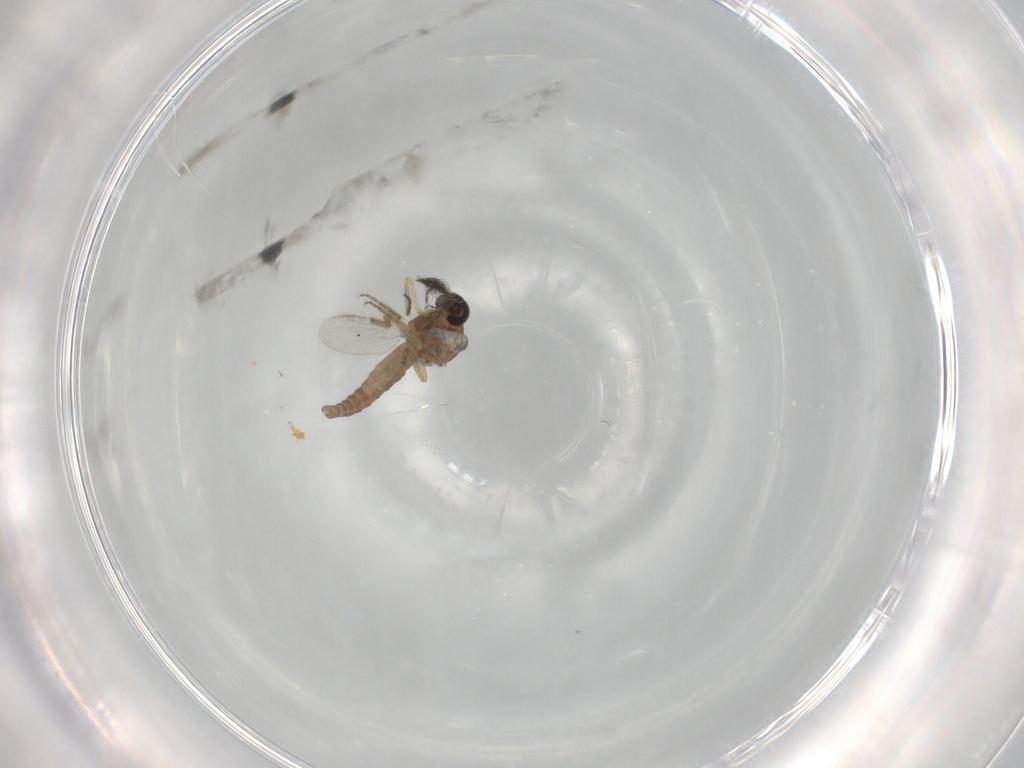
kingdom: Animalia
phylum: Arthropoda
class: Insecta
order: Diptera
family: Ceratopogonidae
